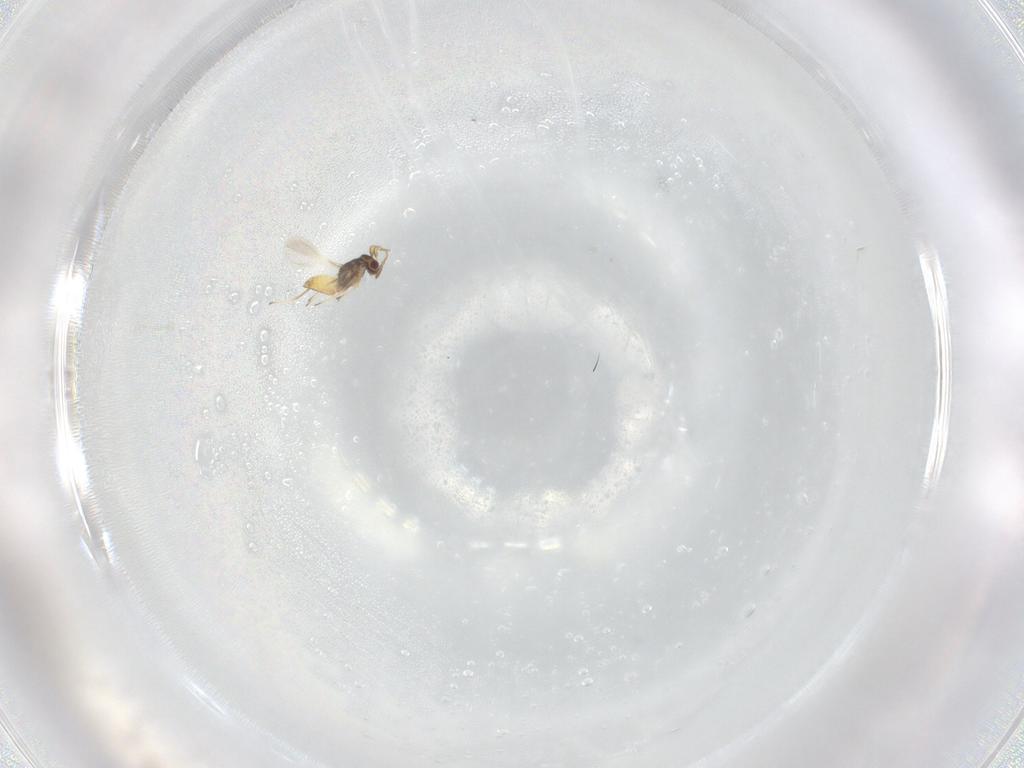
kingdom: Animalia
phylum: Arthropoda
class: Insecta
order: Hymenoptera
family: Mymaridae
